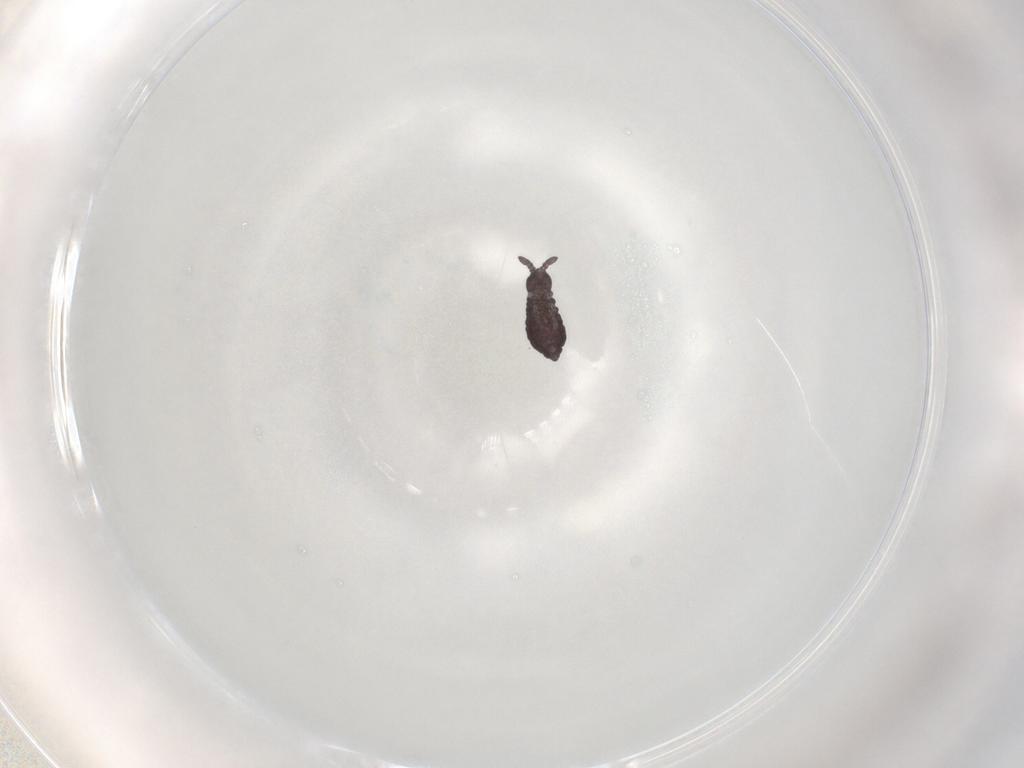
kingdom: Animalia
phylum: Arthropoda
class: Collembola
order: Poduromorpha
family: Hypogastruridae
